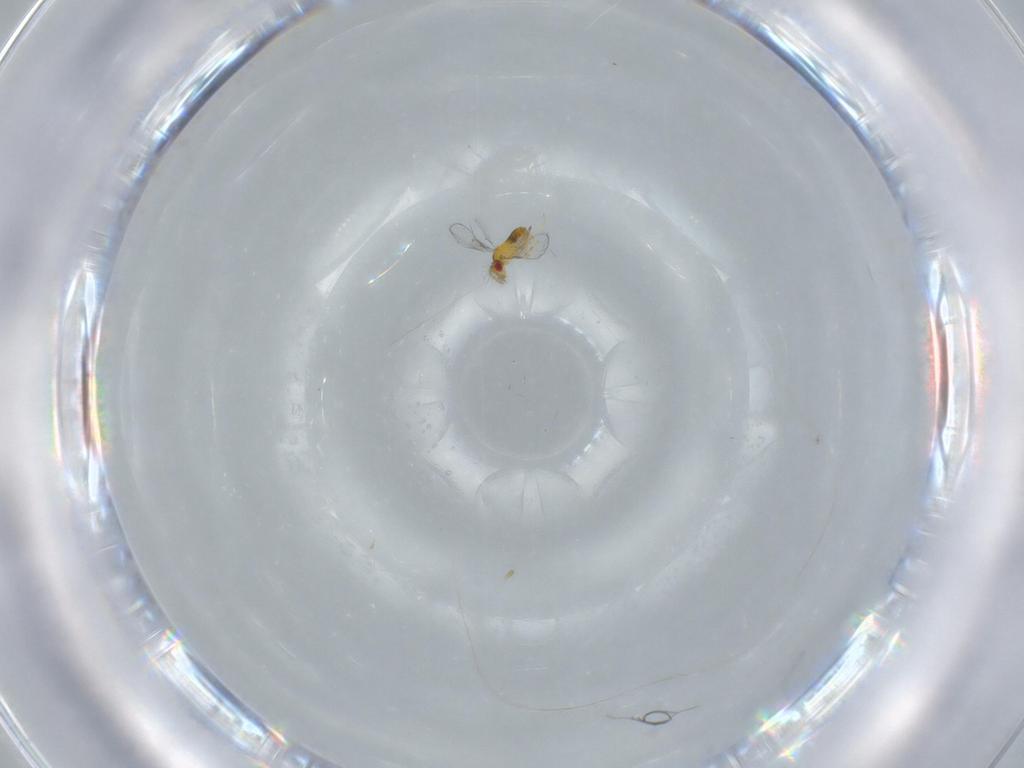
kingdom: Animalia
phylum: Arthropoda
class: Insecta
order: Hymenoptera
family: Trichogrammatidae
